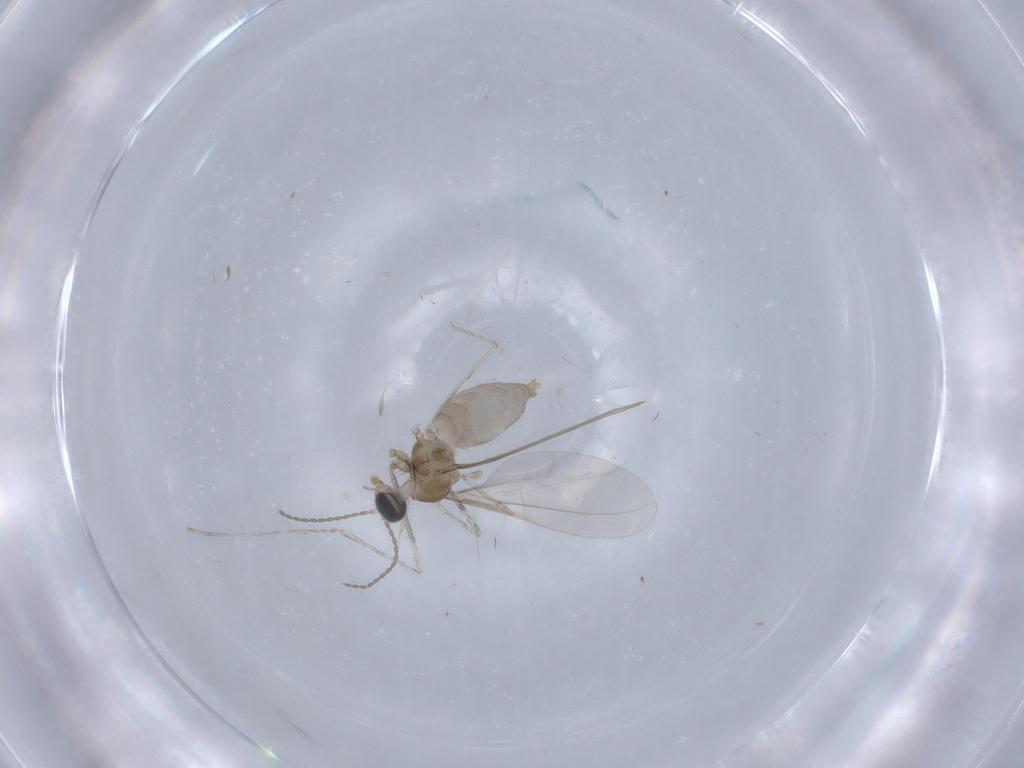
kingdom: Animalia
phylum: Arthropoda
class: Insecta
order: Diptera
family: Cecidomyiidae
